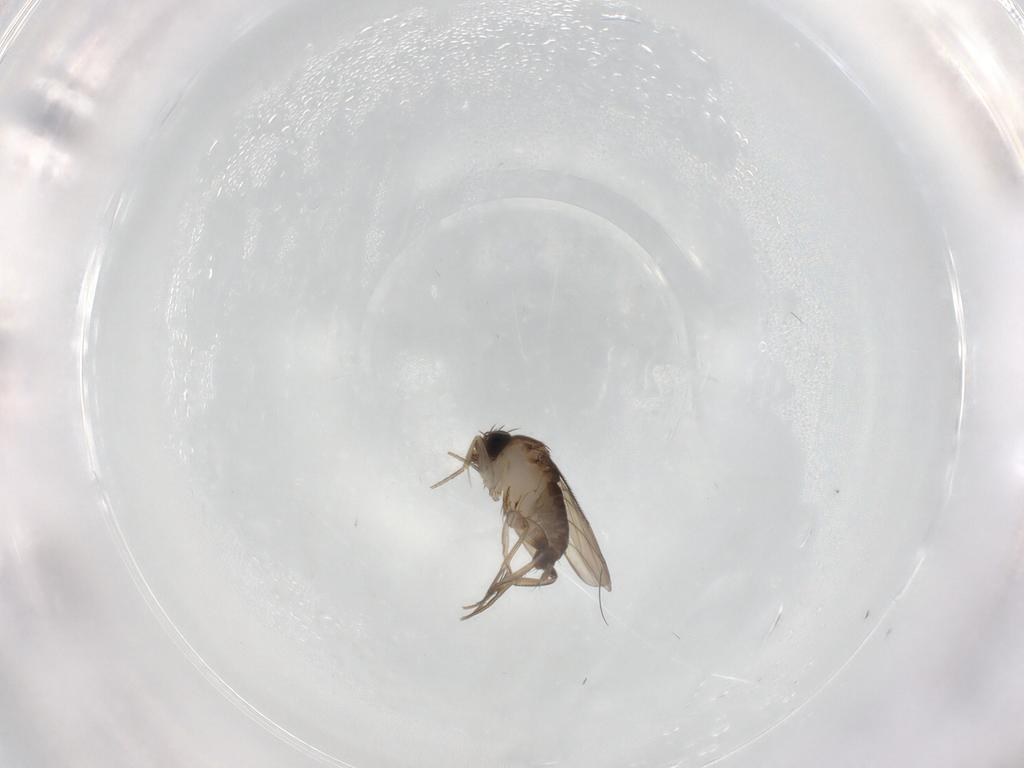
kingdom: Animalia
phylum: Arthropoda
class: Insecta
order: Diptera
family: Phoridae
